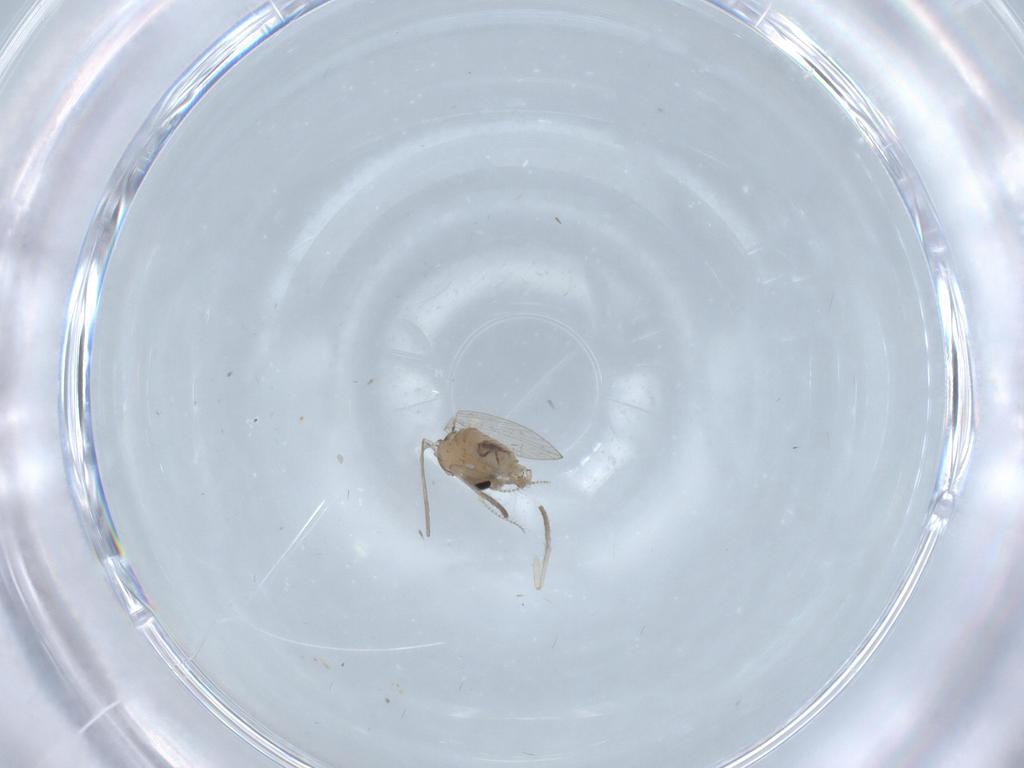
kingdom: Animalia
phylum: Arthropoda
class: Insecta
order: Diptera
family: Psychodidae
